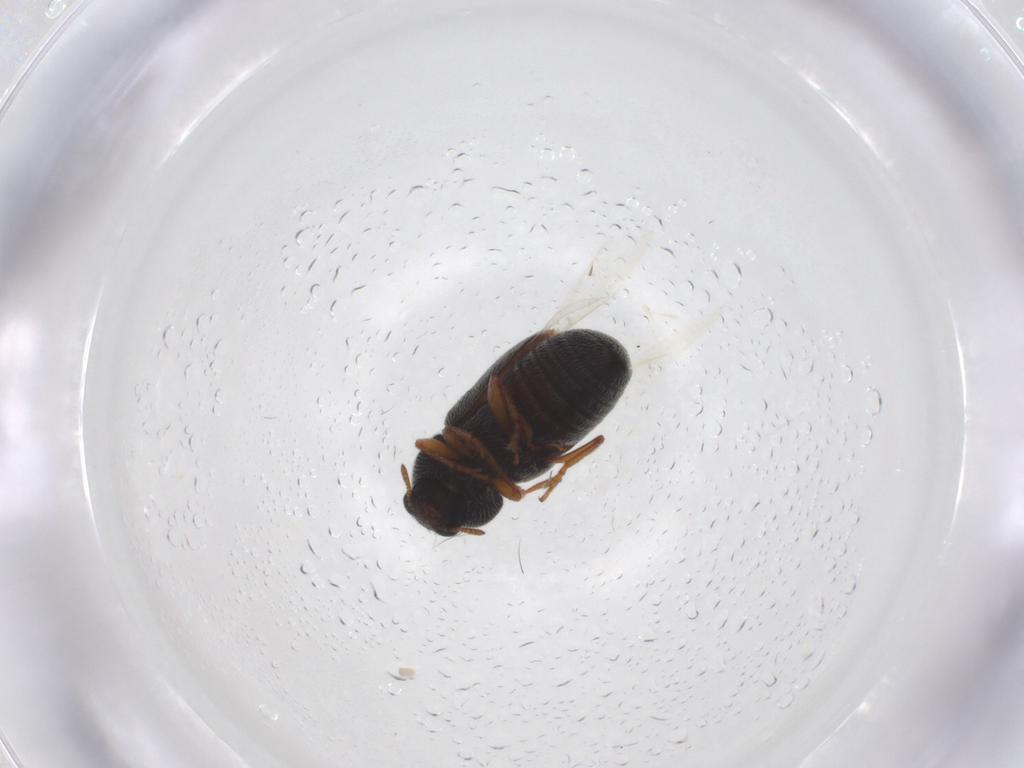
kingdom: Animalia
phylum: Arthropoda
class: Insecta
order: Coleoptera
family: Anthribidae
